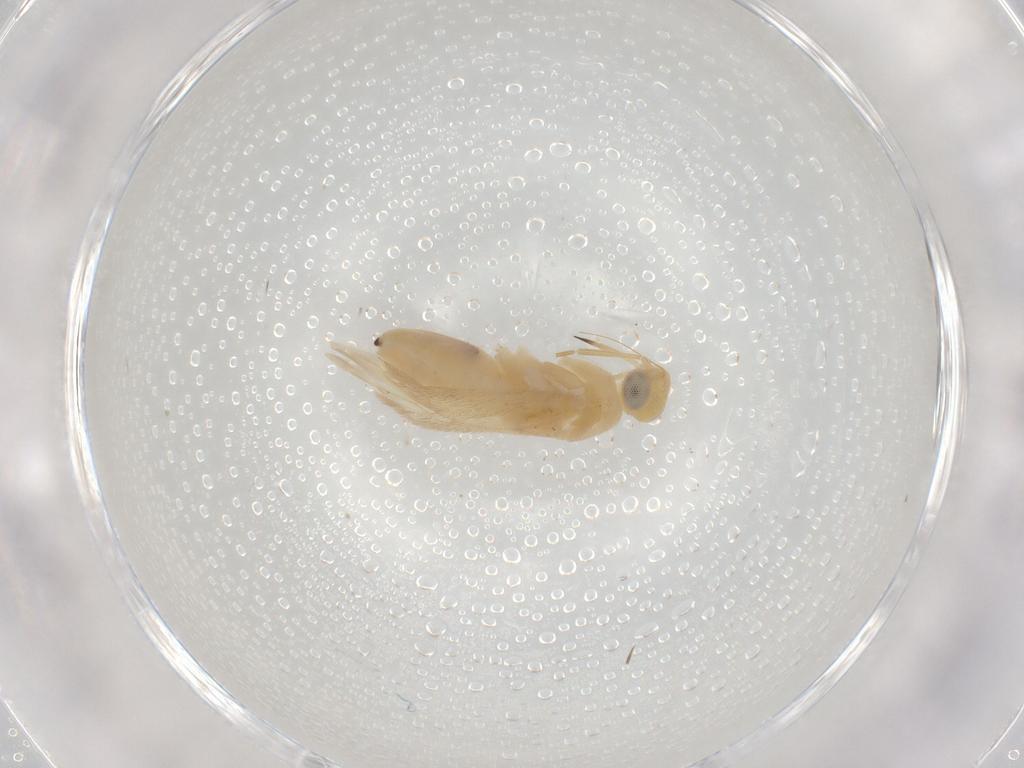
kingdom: Animalia
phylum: Arthropoda
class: Insecta
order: Hemiptera
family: Miridae
